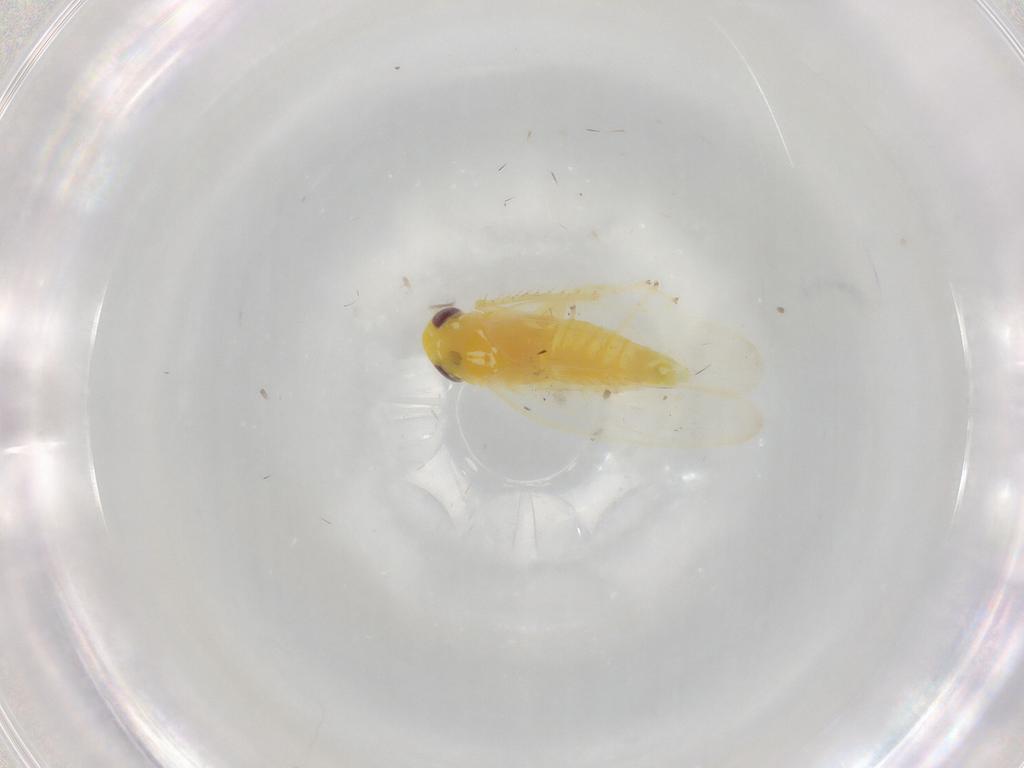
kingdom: Animalia
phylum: Arthropoda
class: Insecta
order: Hemiptera
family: Cicadellidae
